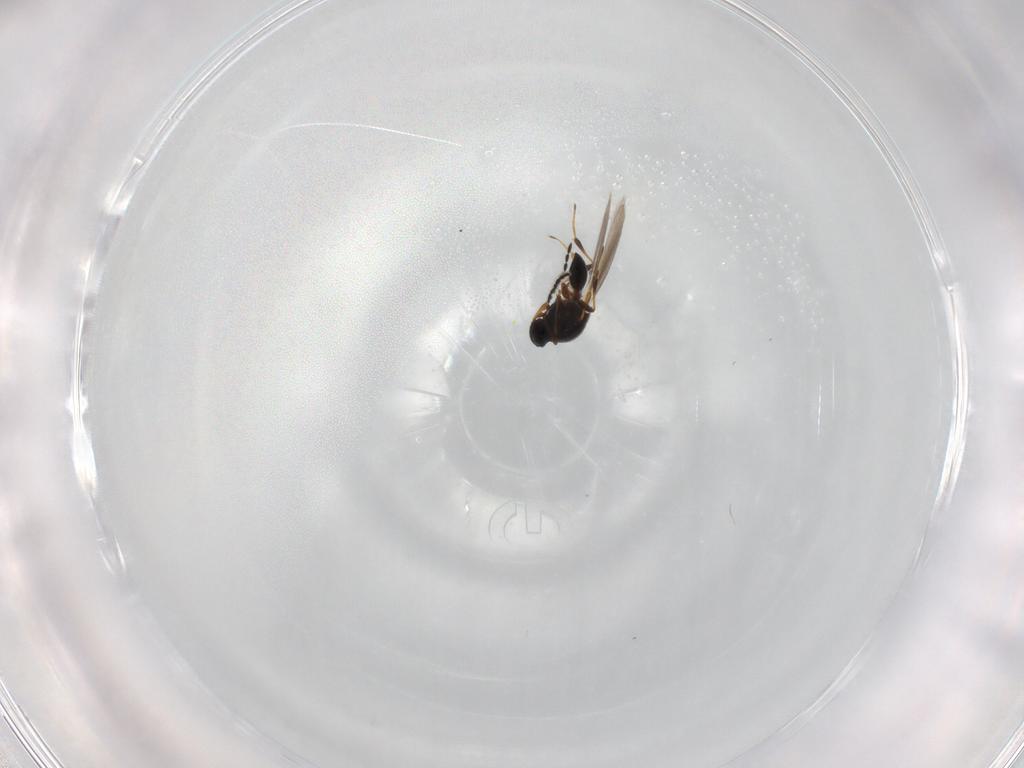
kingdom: Animalia
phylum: Arthropoda
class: Insecta
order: Hymenoptera
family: Platygastridae
